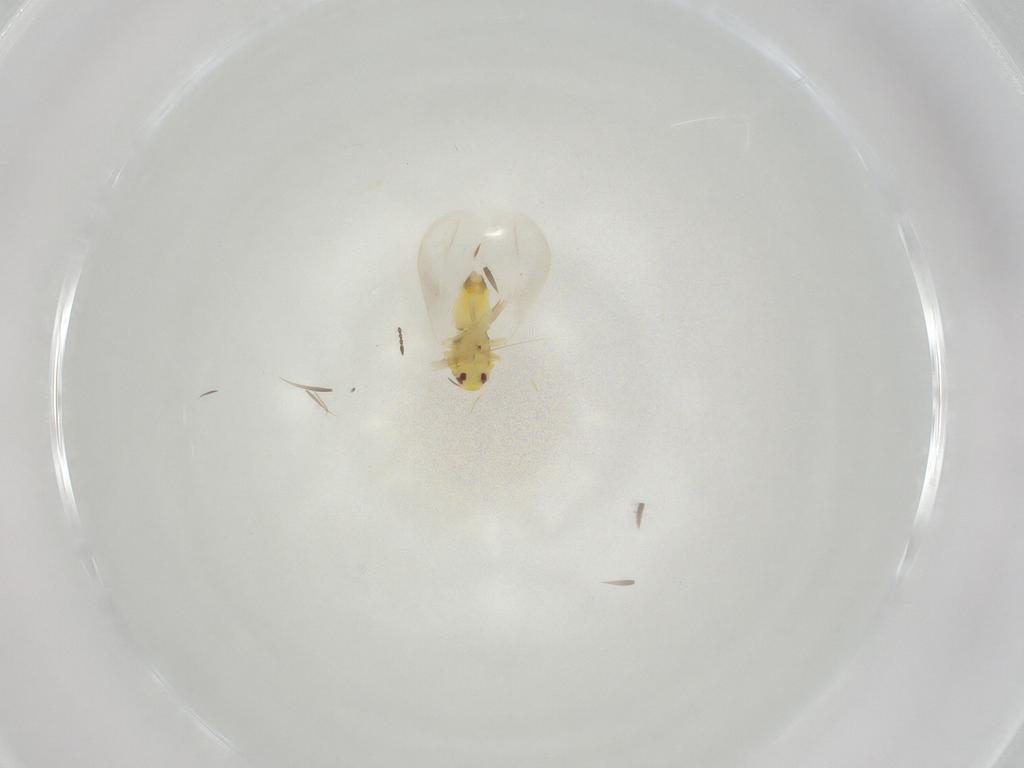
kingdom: Animalia
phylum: Arthropoda
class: Insecta
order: Hemiptera
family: Aleyrodidae
